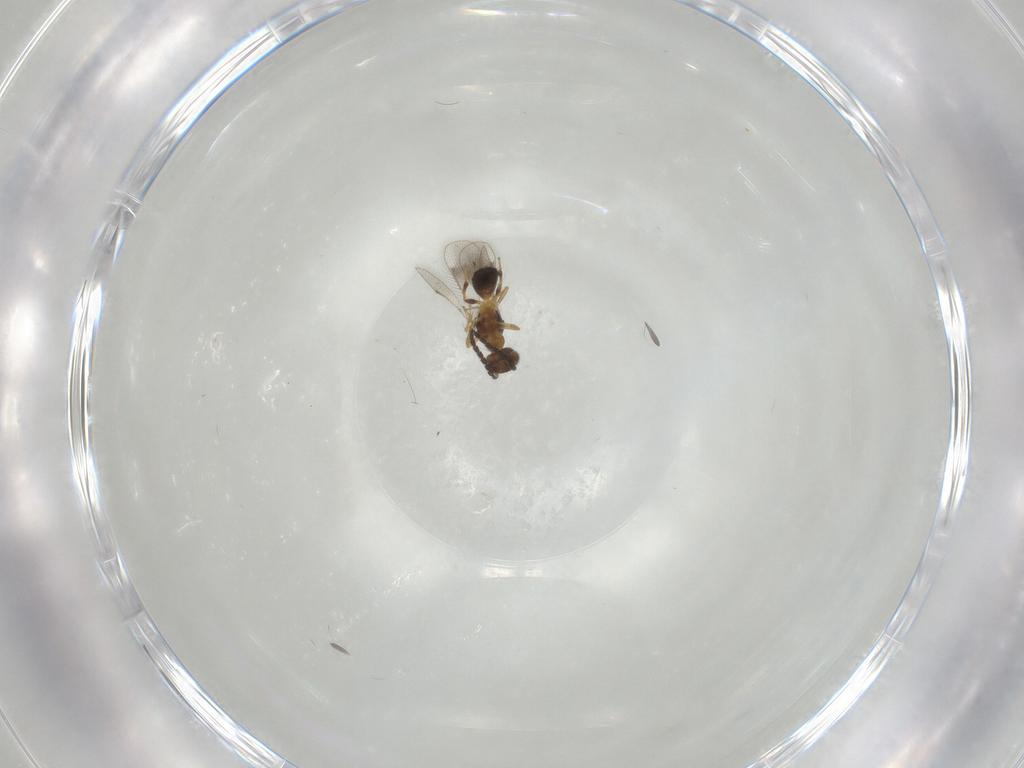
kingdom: Animalia
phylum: Arthropoda
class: Insecta
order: Hymenoptera
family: Pteromalidae
